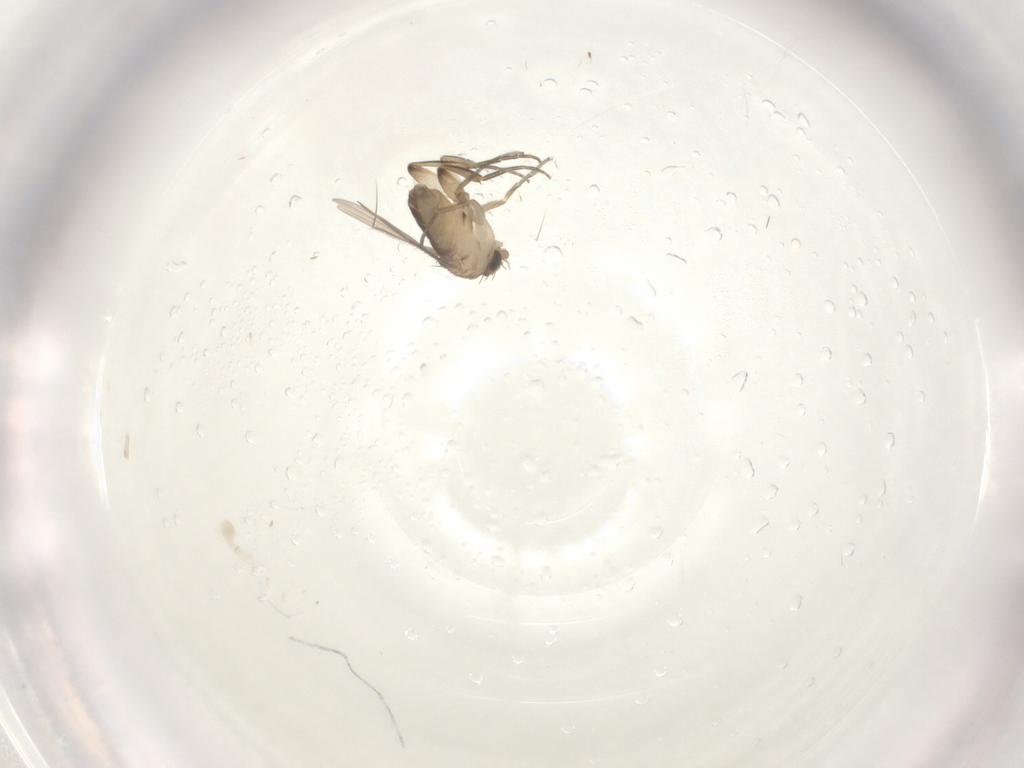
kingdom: Animalia
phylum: Arthropoda
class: Insecta
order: Diptera
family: Phoridae
